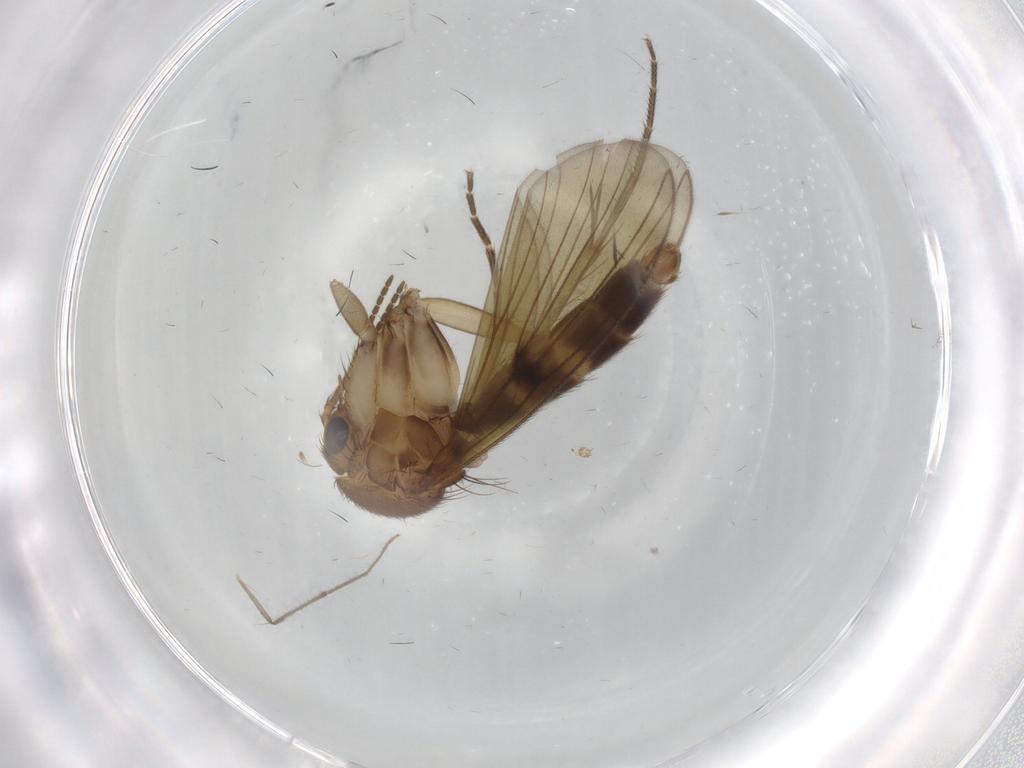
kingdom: Animalia
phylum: Arthropoda
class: Insecta
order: Diptera
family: Sciaridae
